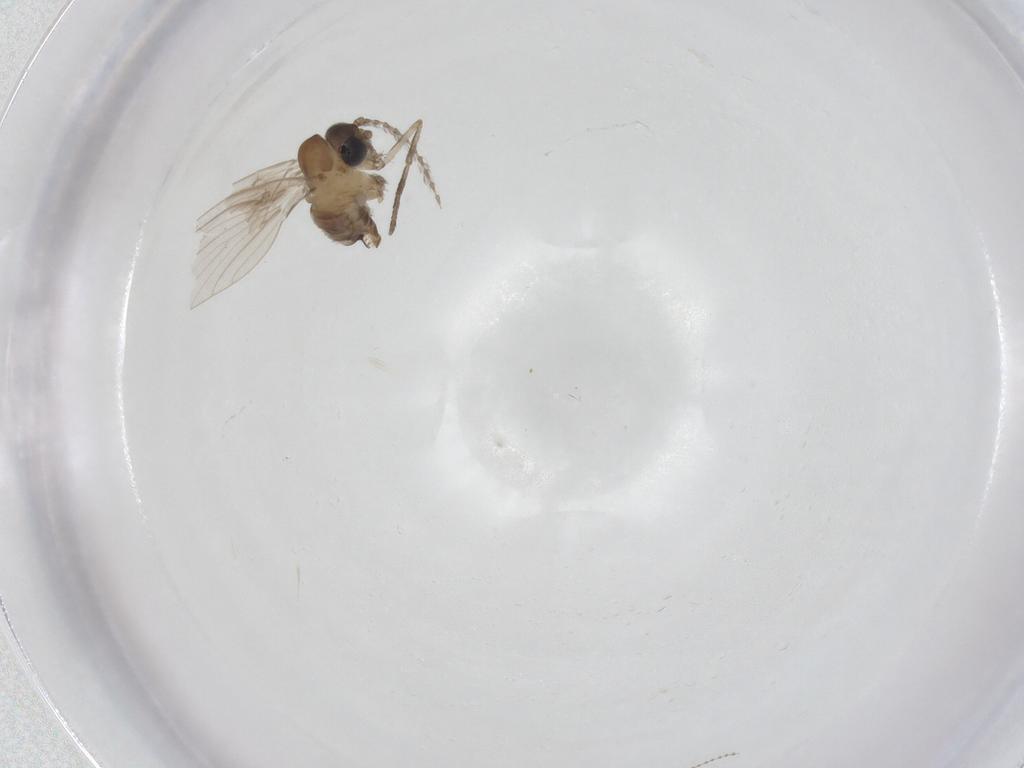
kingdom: Animalia
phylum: Arthropoda
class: Insecta
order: Diptera
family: Psychodidae
